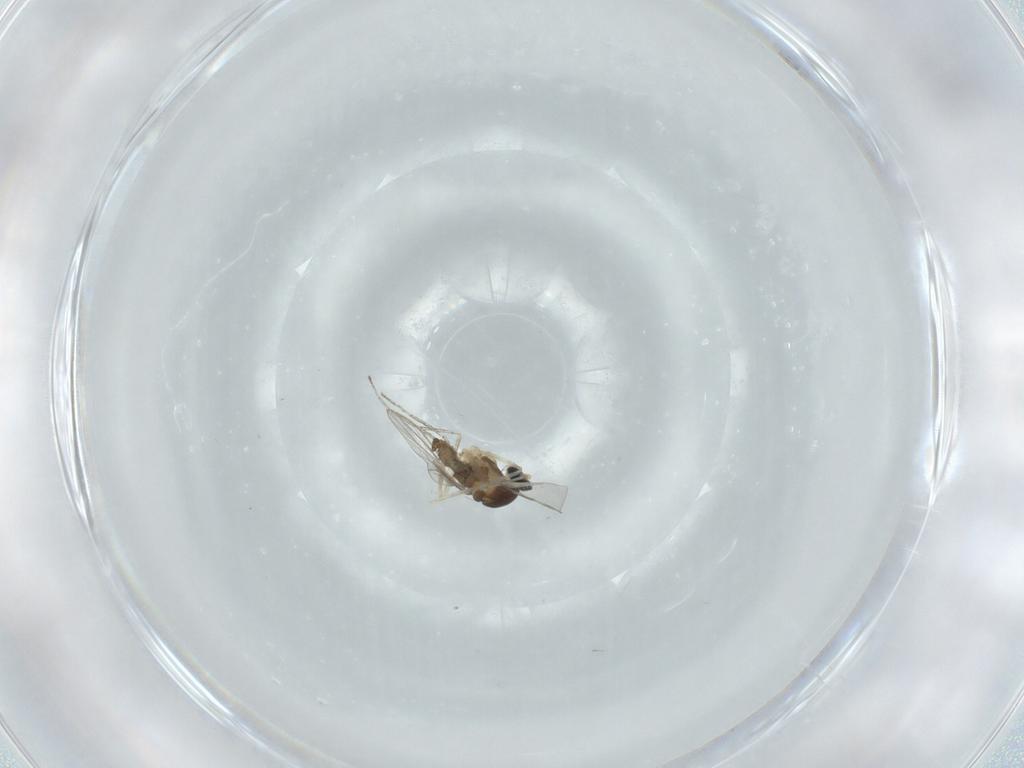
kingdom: Animalia
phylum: Arthropoda
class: Insecta
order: Diptera
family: Cecidomyiidae
